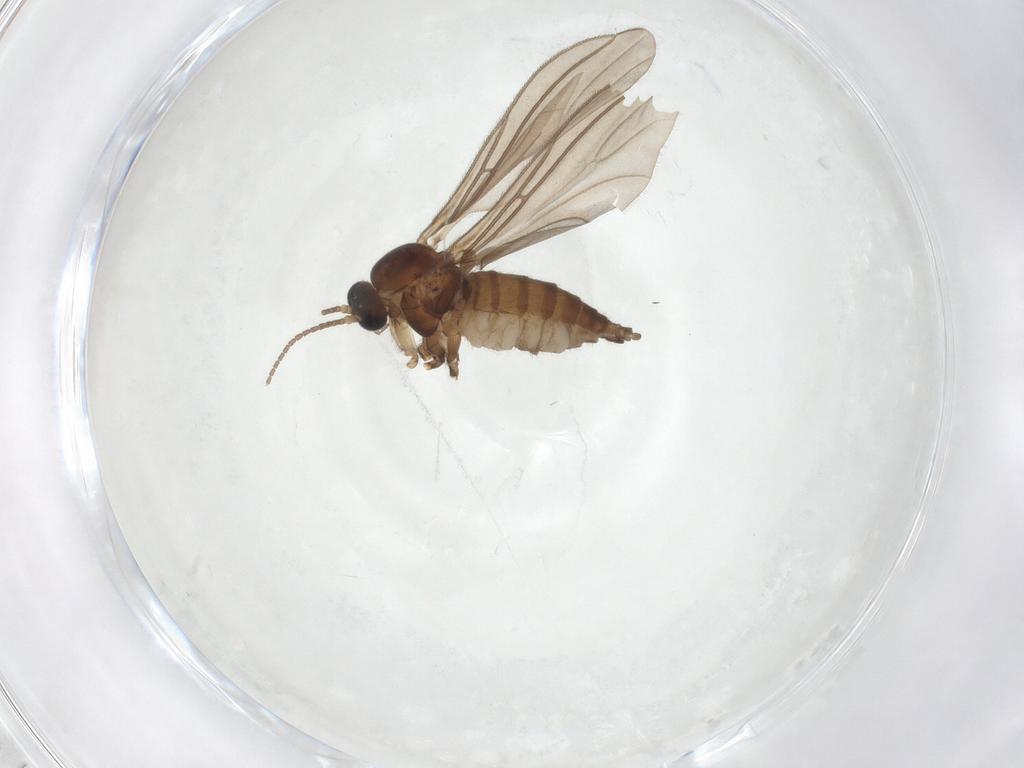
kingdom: Animalia
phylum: Arthropoda
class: Insecta
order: Diptera
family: Sciaridae
